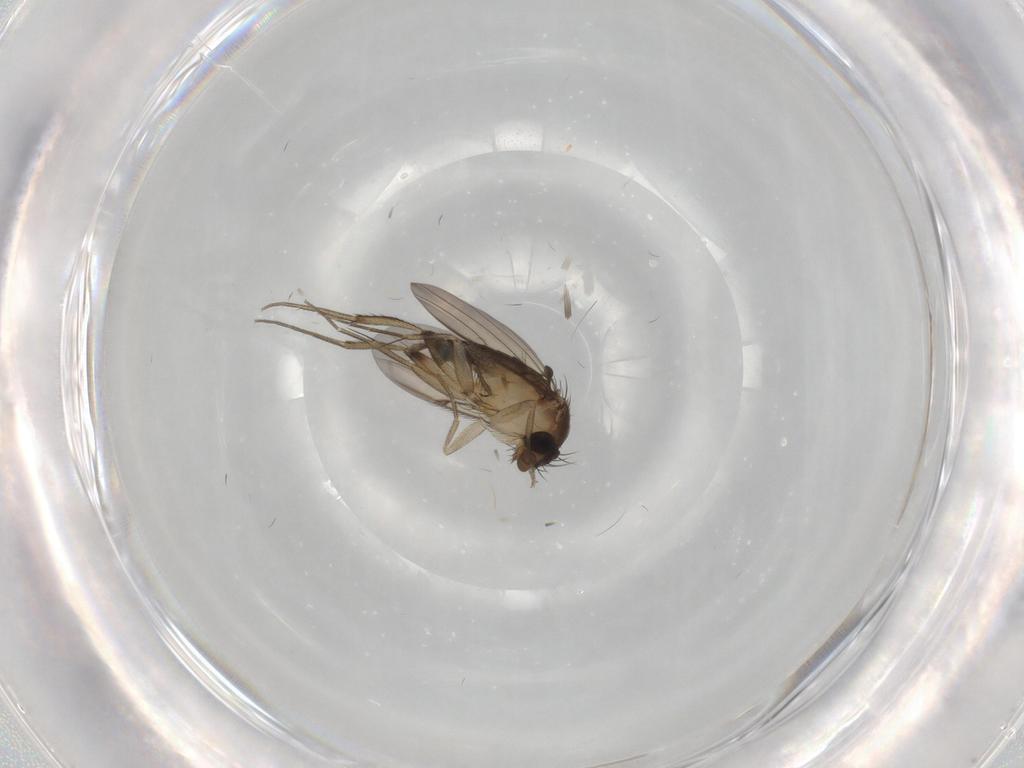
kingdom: Animalia
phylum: Arthropoda
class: Insecta
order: Diptera
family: Phoridae
